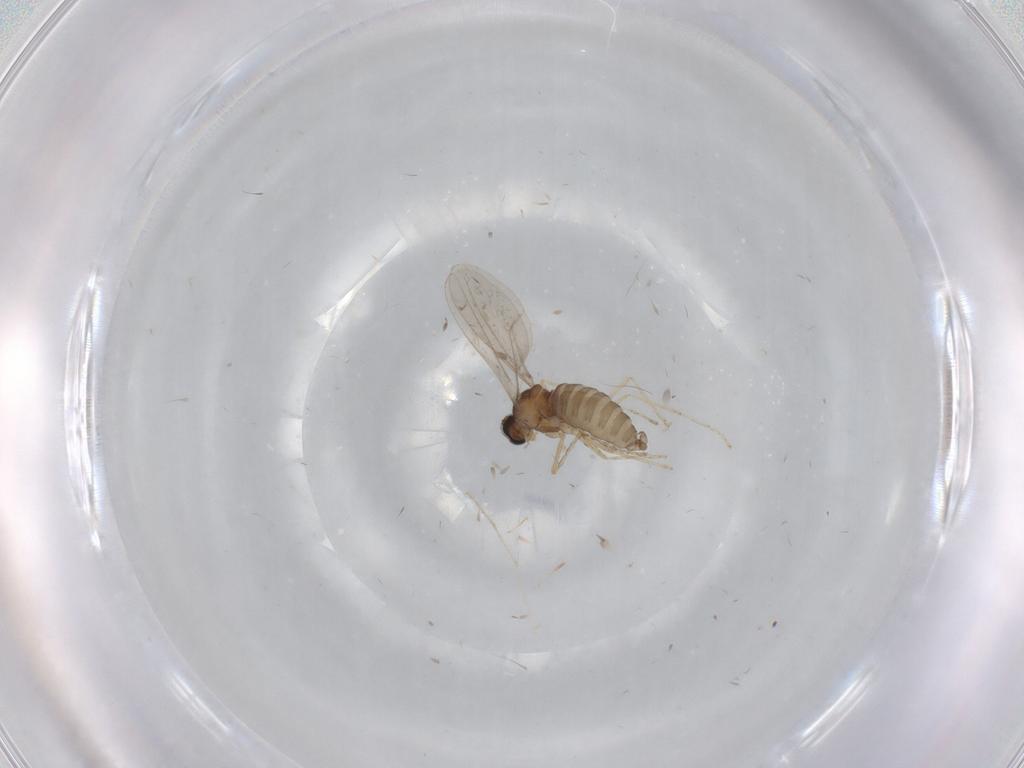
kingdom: Animalia
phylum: Arthropoda
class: Insecta
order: Diptera
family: Cecidomyiidae
